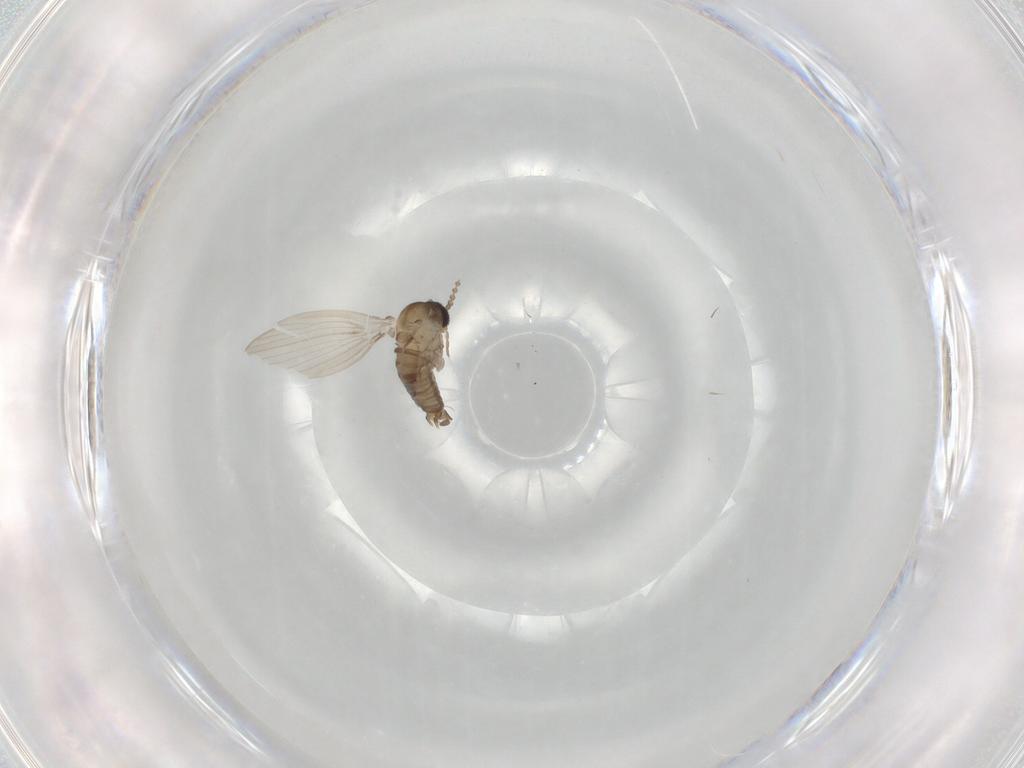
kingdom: Animalia
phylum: Arthropoda
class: Insecta
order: Diptera
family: Psychodidae
